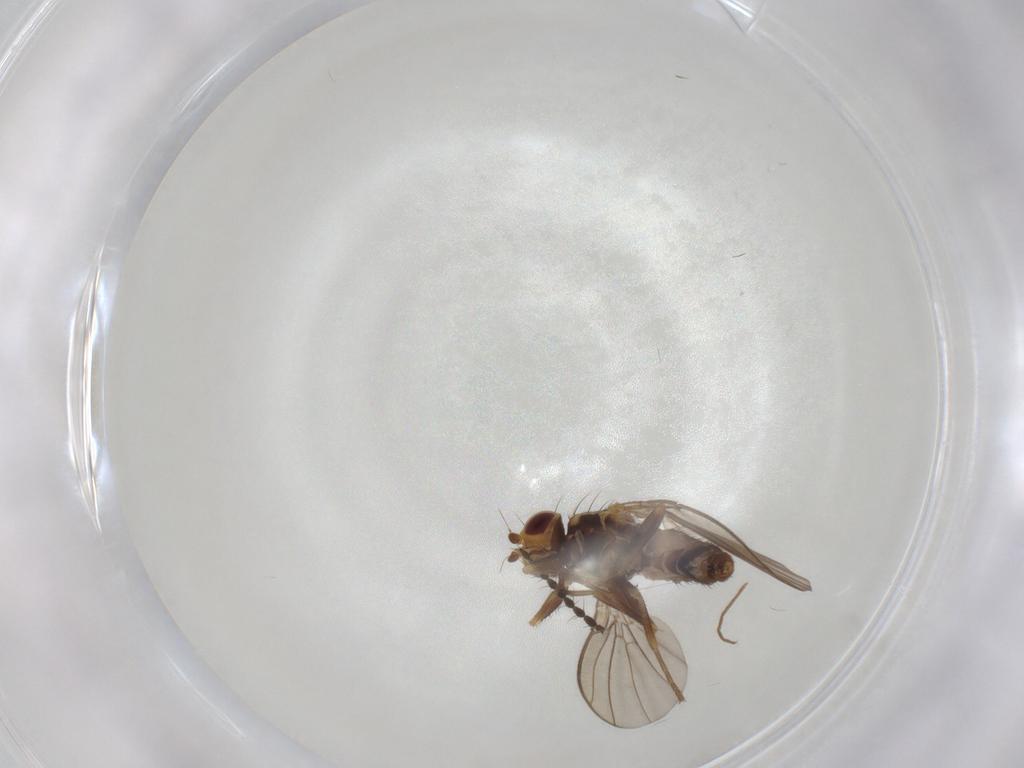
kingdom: Animalia
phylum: Arthropoda
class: Insecta
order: Diptera
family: Agromyzidae
